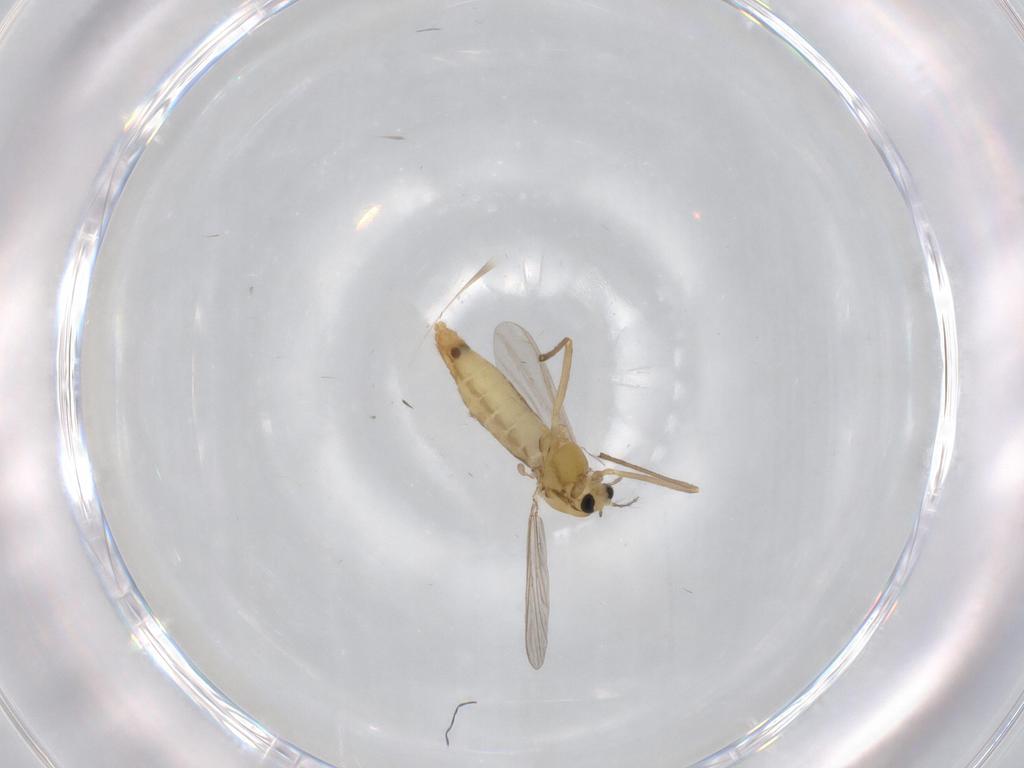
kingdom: Animalia
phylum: Arthropoda
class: Insecta
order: Diptera
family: Chironomidae
